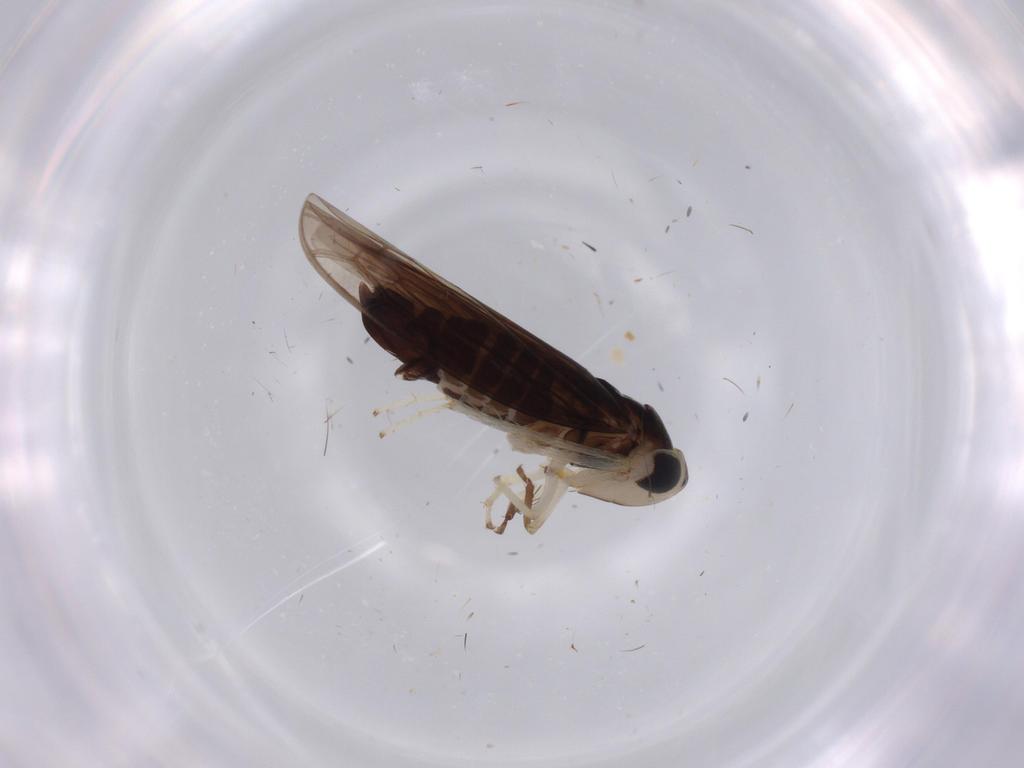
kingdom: Animalia
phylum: Arthropoda
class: Insecta
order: Hemiptera
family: Cicadellidae
